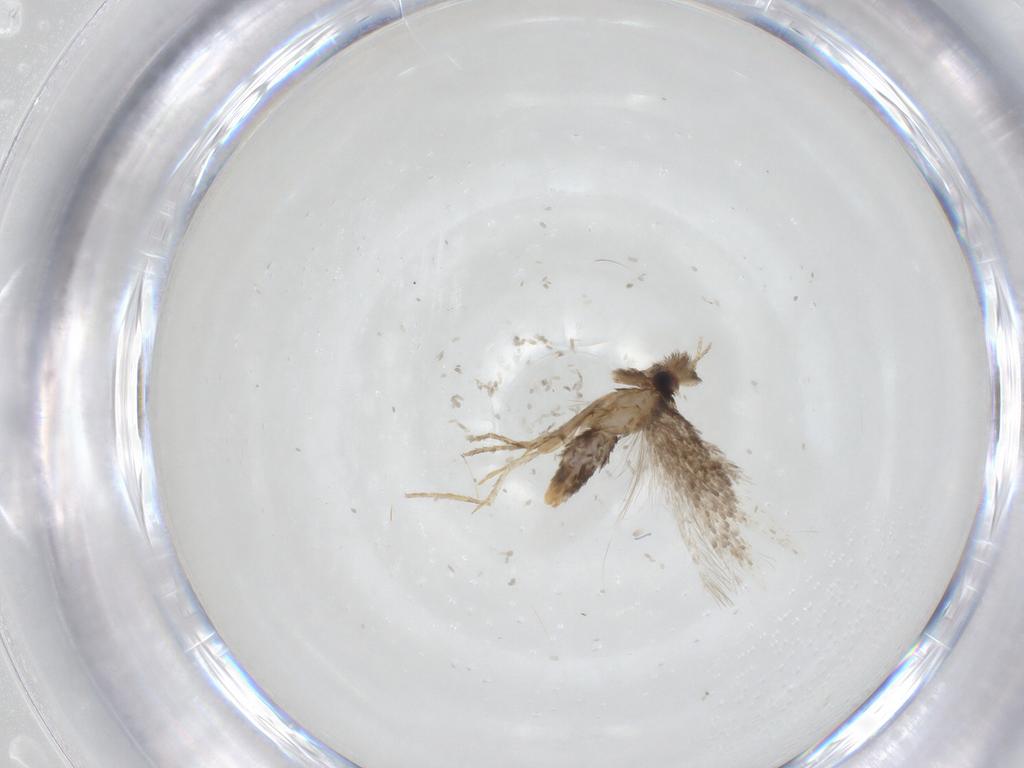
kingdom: Animalia
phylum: Arthropoda
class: Insecta
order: Lepidoptera
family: Nepticulidae
